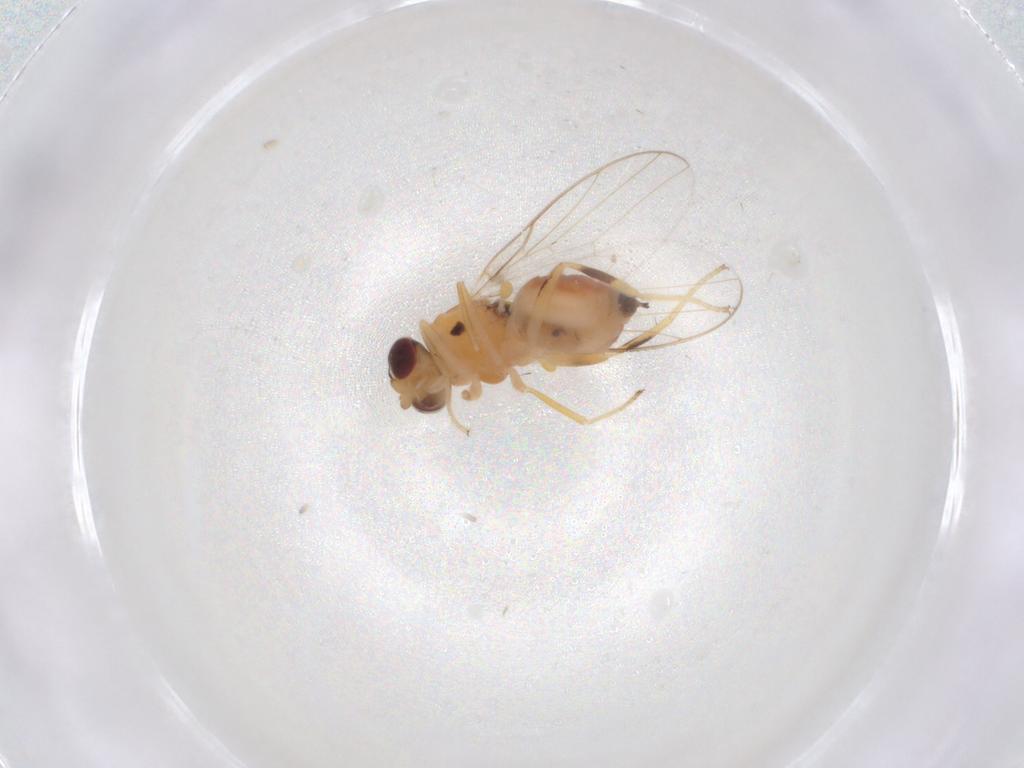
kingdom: Animalia
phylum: Arthropoda
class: Insecta
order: Diptera
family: Chloropidae
